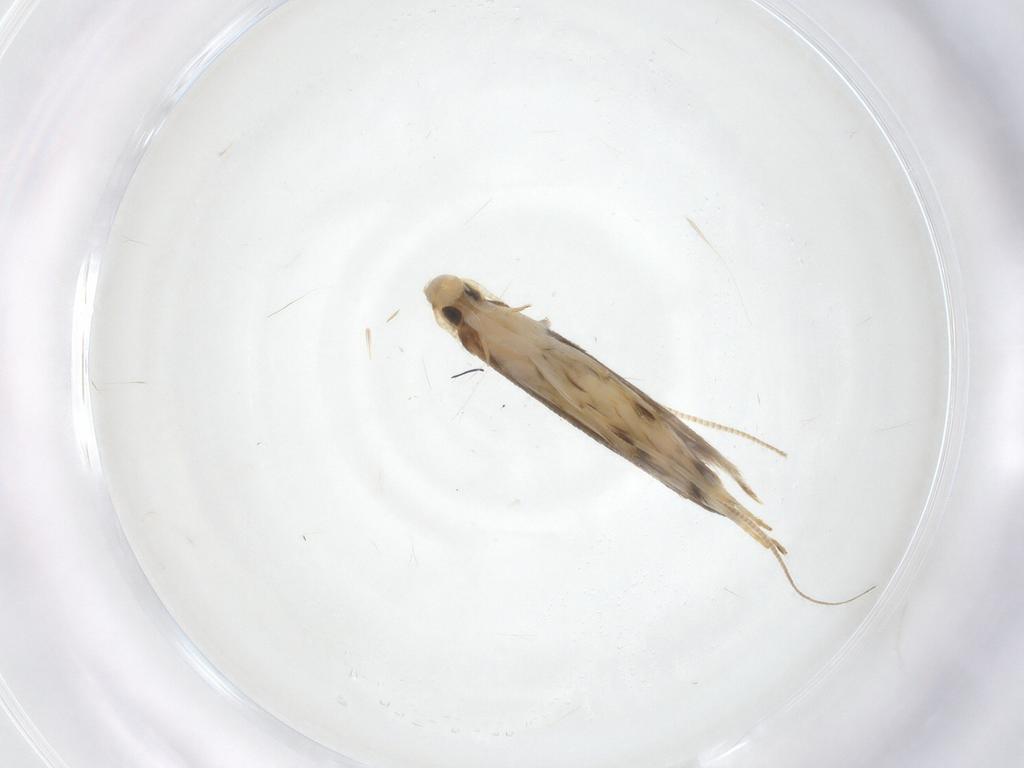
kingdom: Animalia
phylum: Arthropoda
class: Insecta
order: Lepidoptera
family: Gracillariidae
